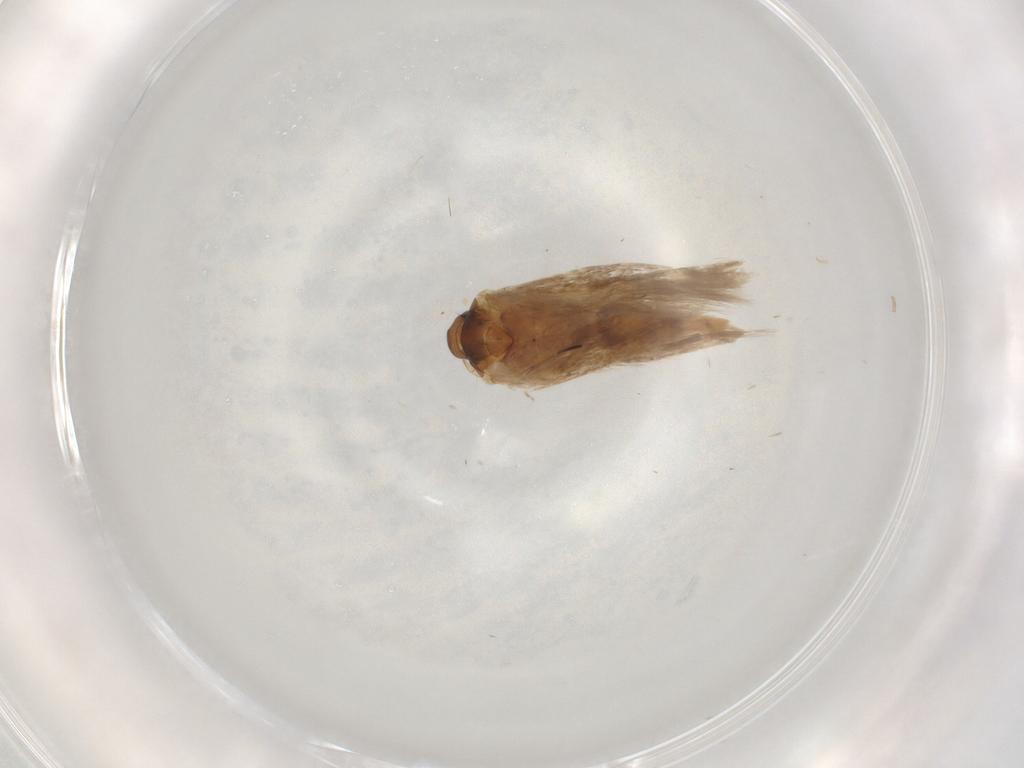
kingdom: Animalia
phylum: Arthropoda
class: Insecta
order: Lepidoptera
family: Cosmopterigidae
